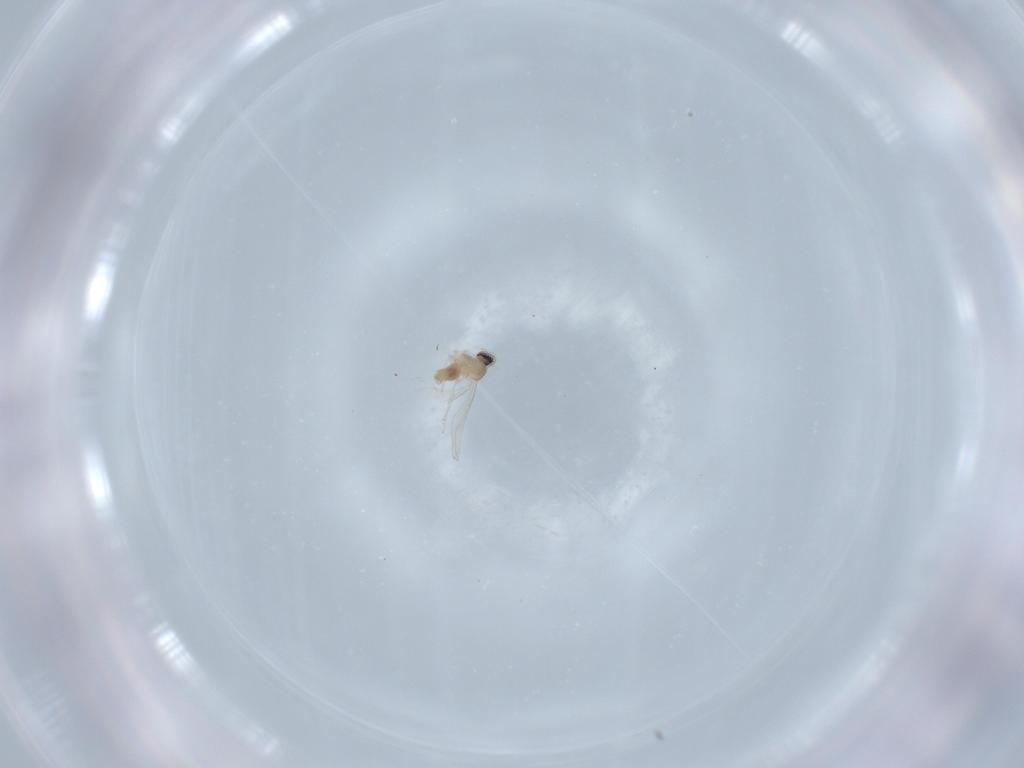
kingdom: Animalia
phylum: Arthropoda
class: Insecta
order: Diptera
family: Cecidomyiidae
